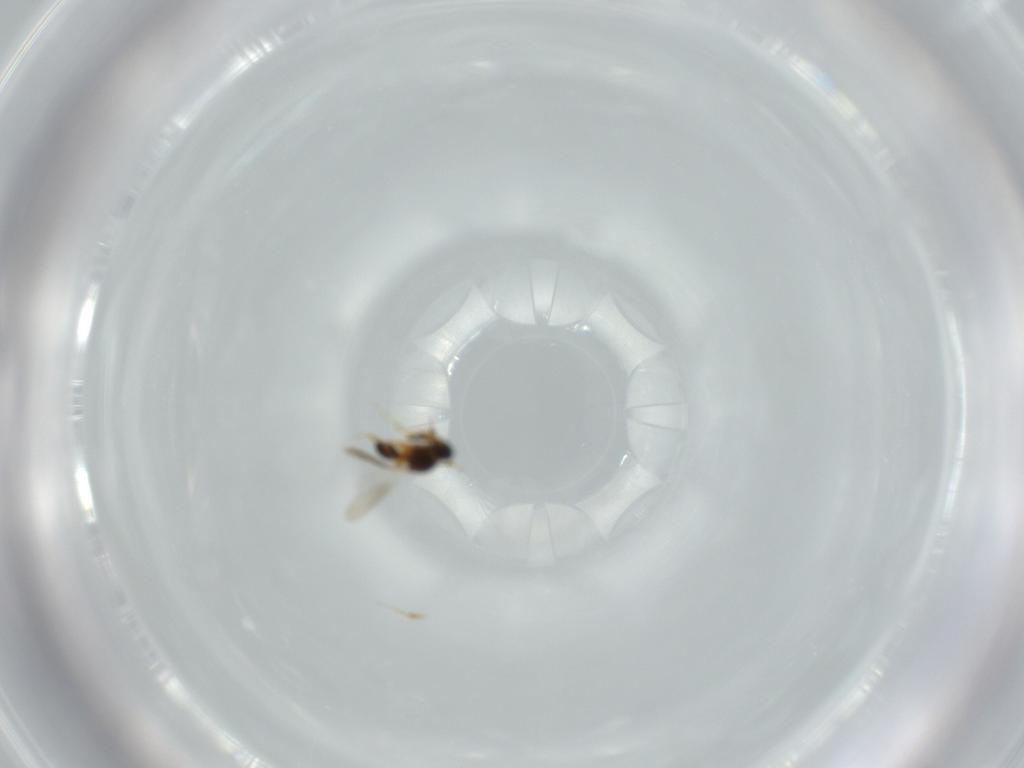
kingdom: Animalia
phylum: Arthropoda
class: Insecta
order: Hymenoptera
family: Platygastridae
